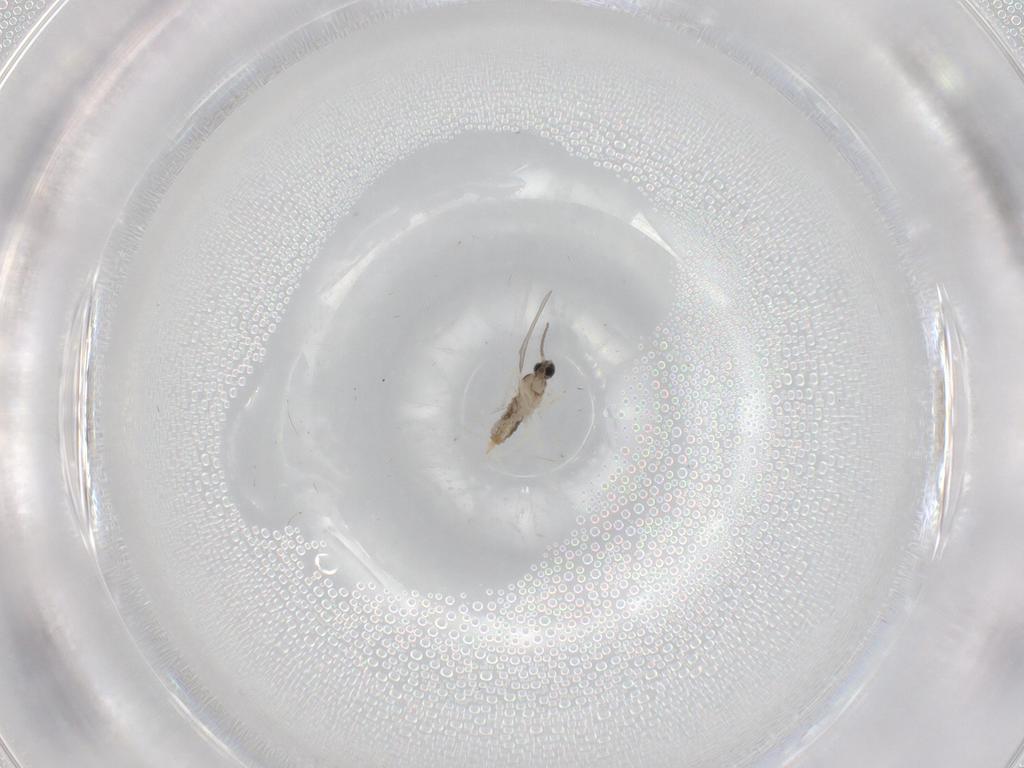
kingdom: Animalia
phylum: Arthropoda
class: Insecta
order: Diptera
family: Cecidomyiidae
